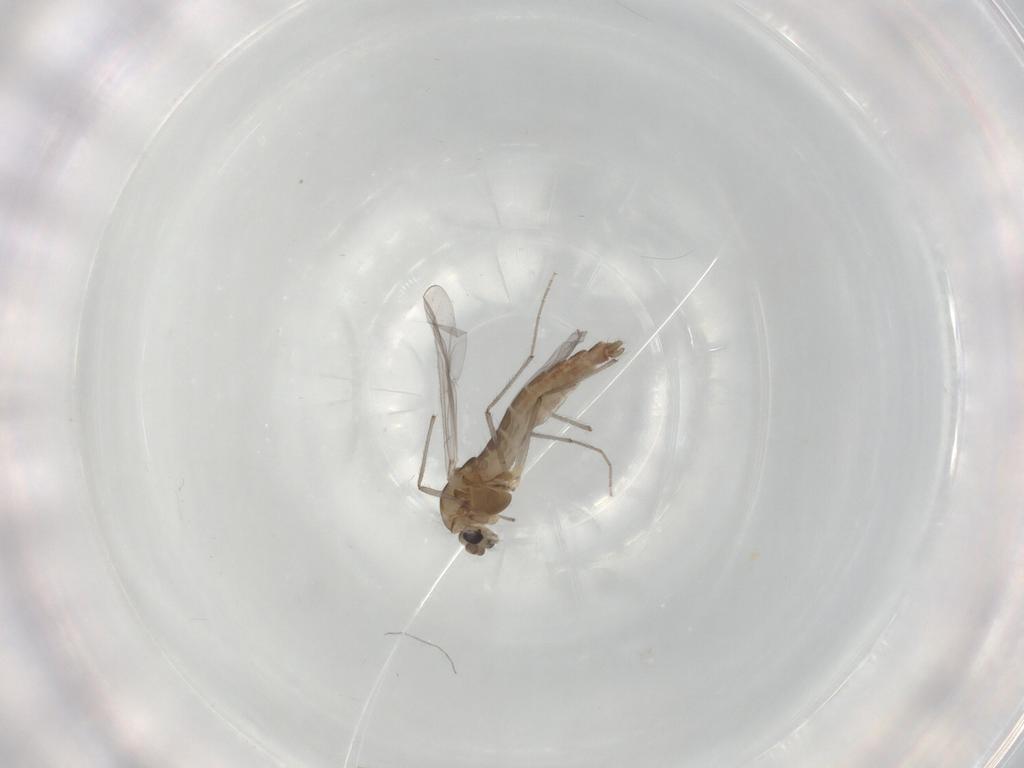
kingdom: Animalia
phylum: Arthropoda
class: Insecta
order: Diptera
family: Chironomidae
